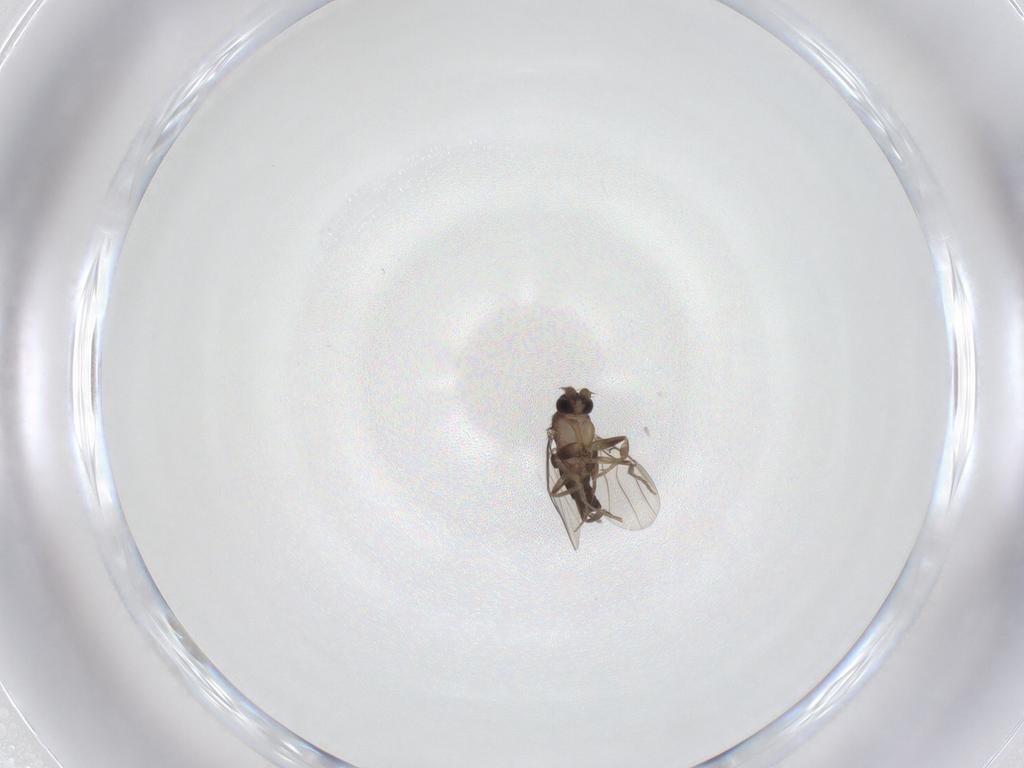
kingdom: Animalia
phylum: Arthropoda
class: Insecta
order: Diptera
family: Phoridae
